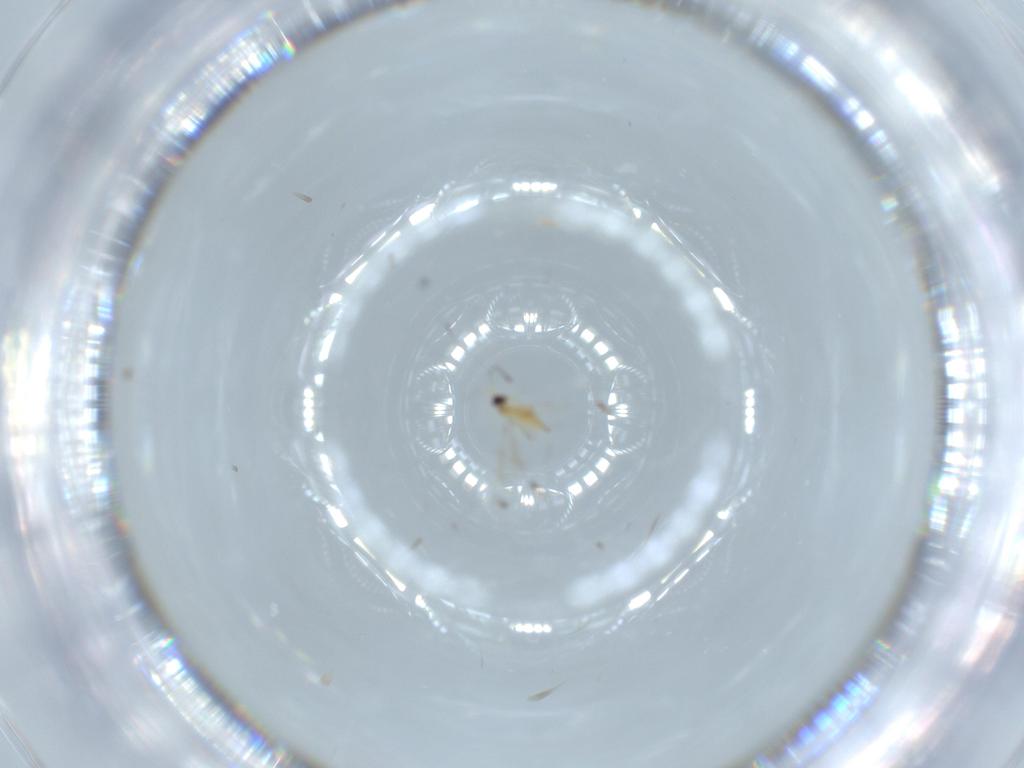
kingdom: Animalia
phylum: Arthropoda
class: Insecta
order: Hymenoptera
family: Mymaridae
